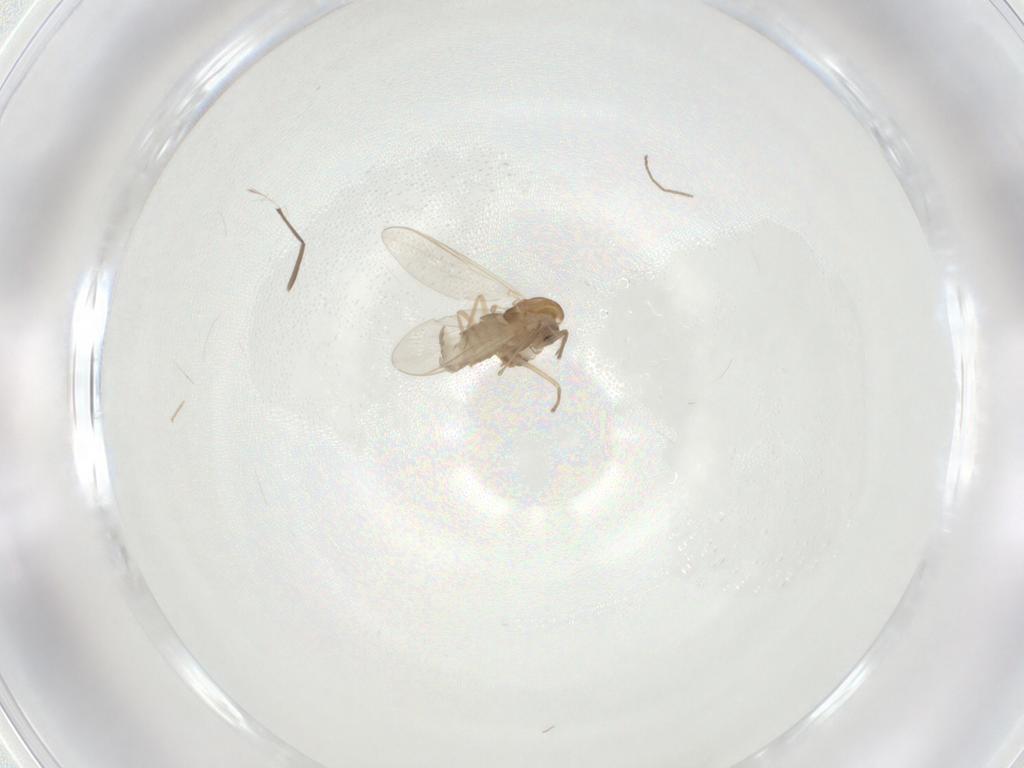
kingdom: Animalia
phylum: Arthropoda
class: Insecta
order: Diptera
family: Chironomidae
